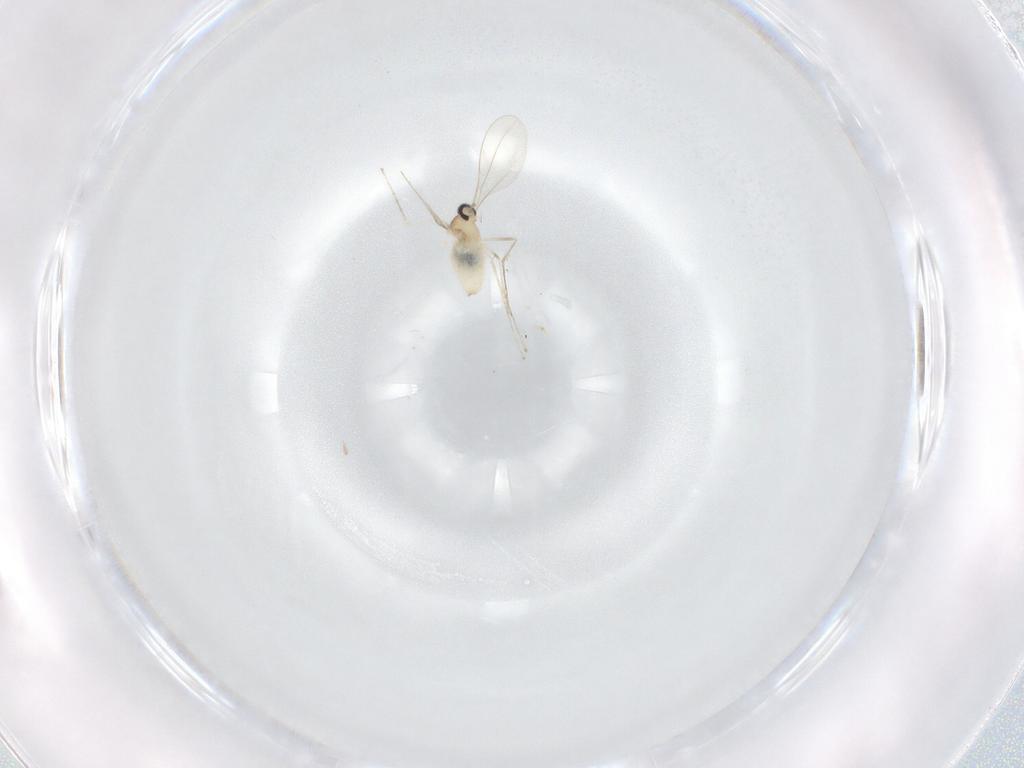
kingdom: Animalia
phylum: Arthropoda
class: Insecta
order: Diptera
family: Cecidomyiidae
